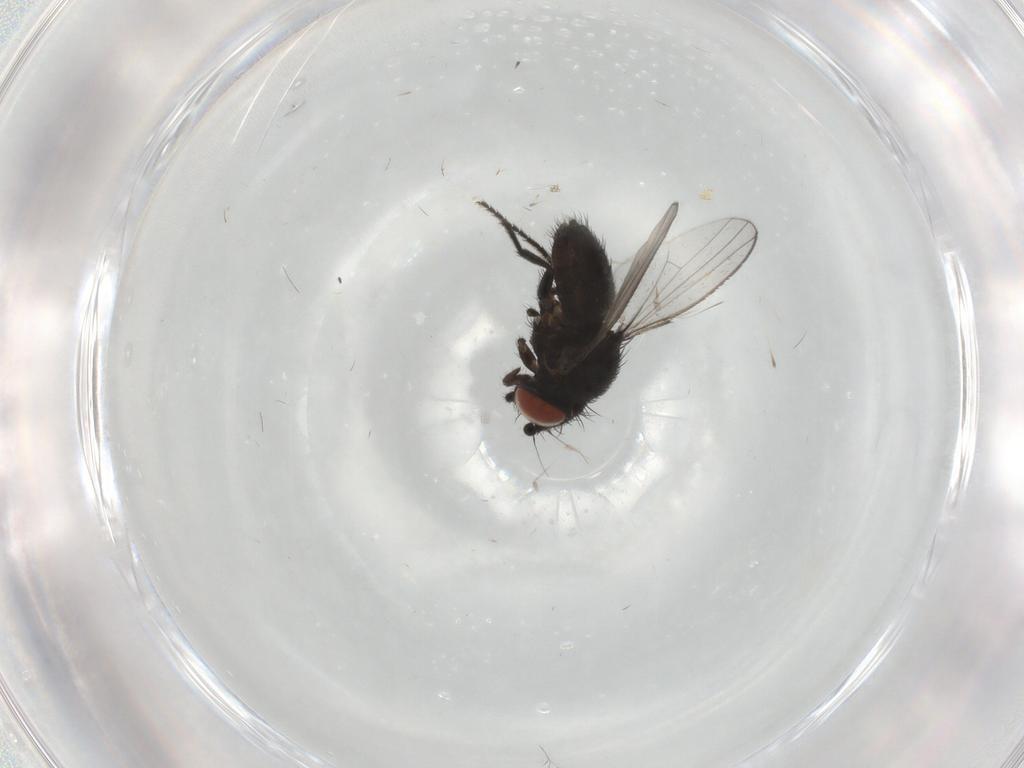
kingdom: Animalia
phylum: Arthropoda
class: Insecta
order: Diptera
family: Milichiidae
